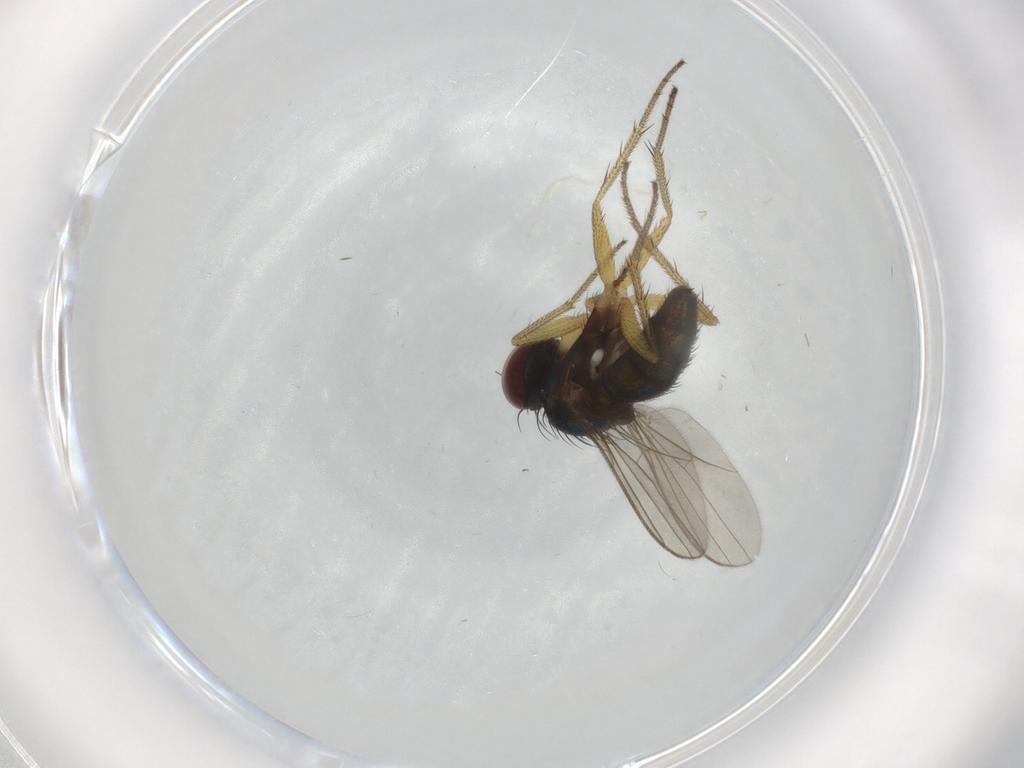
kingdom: Animalia
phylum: Arthropoda
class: Insecta
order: Diptera
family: Dolichopodidae
